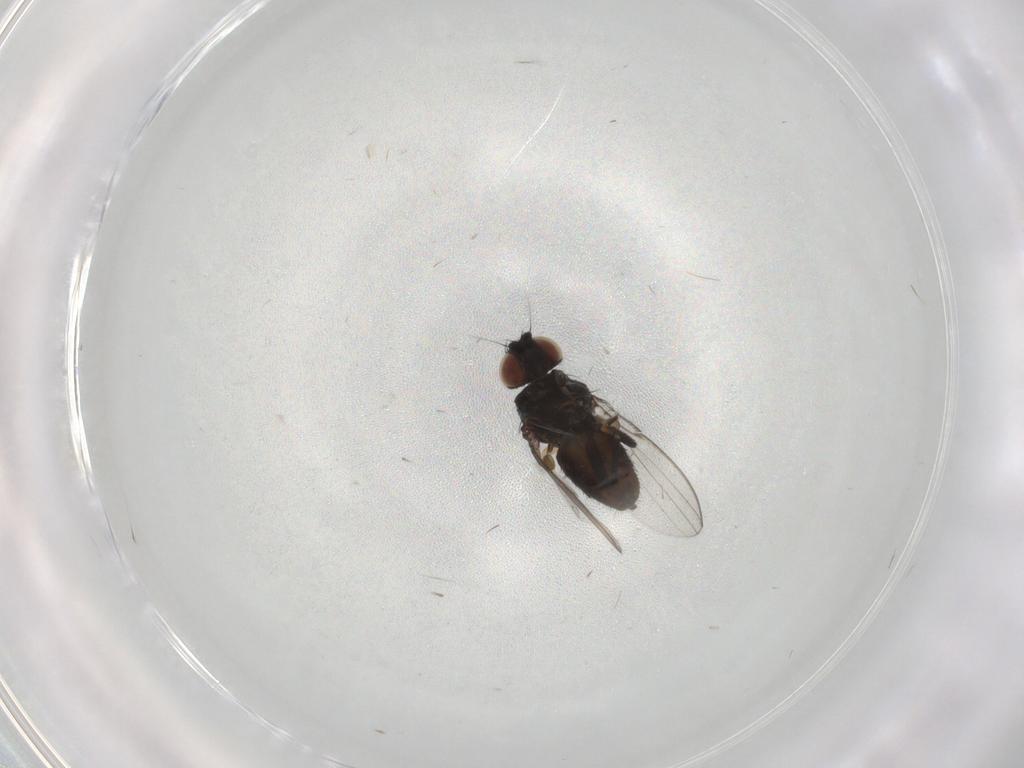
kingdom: Animalia
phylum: Arthropoda
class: Insecta
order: Diptera
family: Milichiidae
